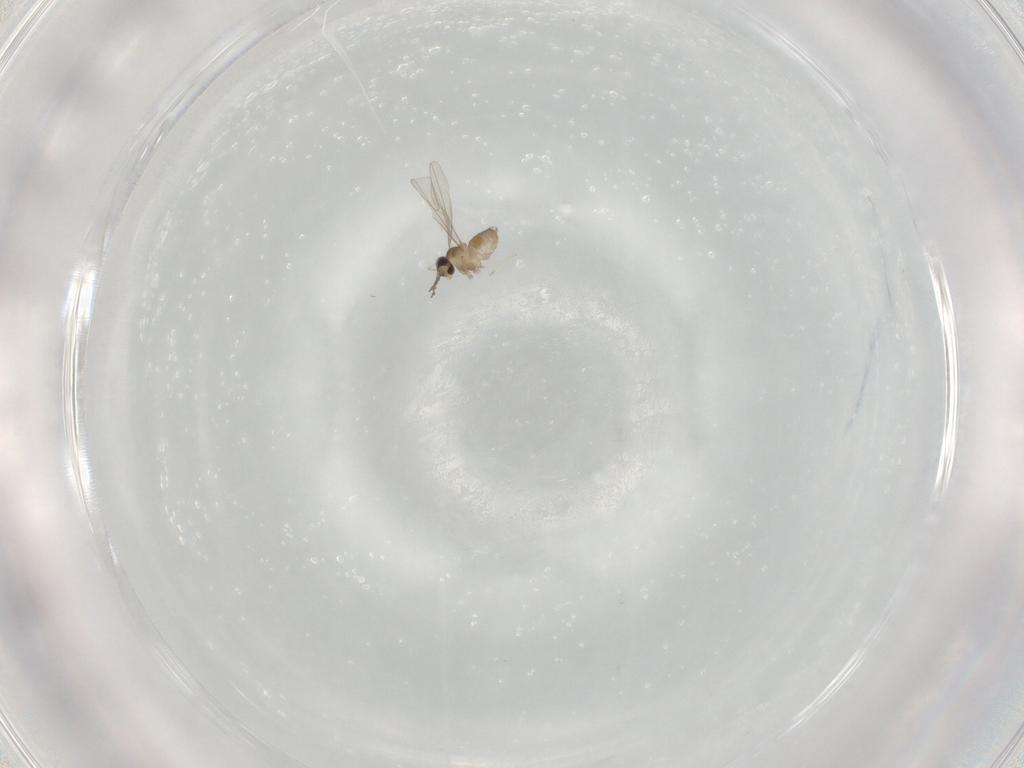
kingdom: Animalia
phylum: Arthropoda
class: Insecta
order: Diptera
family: Cecidomyiidae
